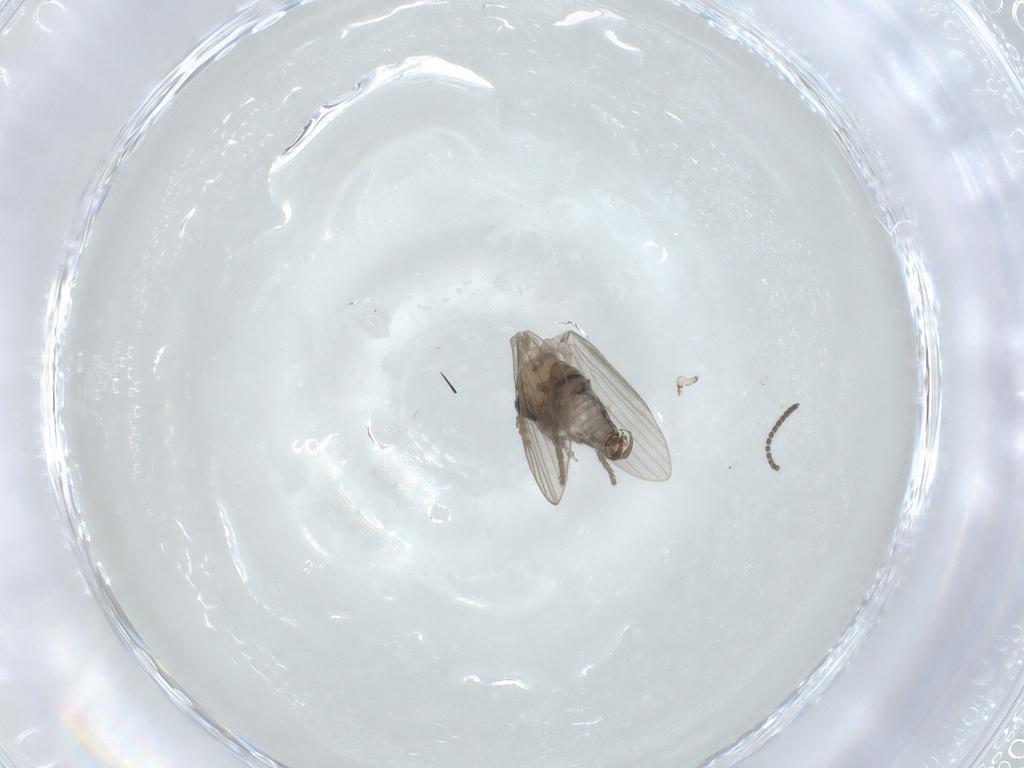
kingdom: Animalia
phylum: Arthropoda
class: Insecta
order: Diptera
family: Psychodidae
